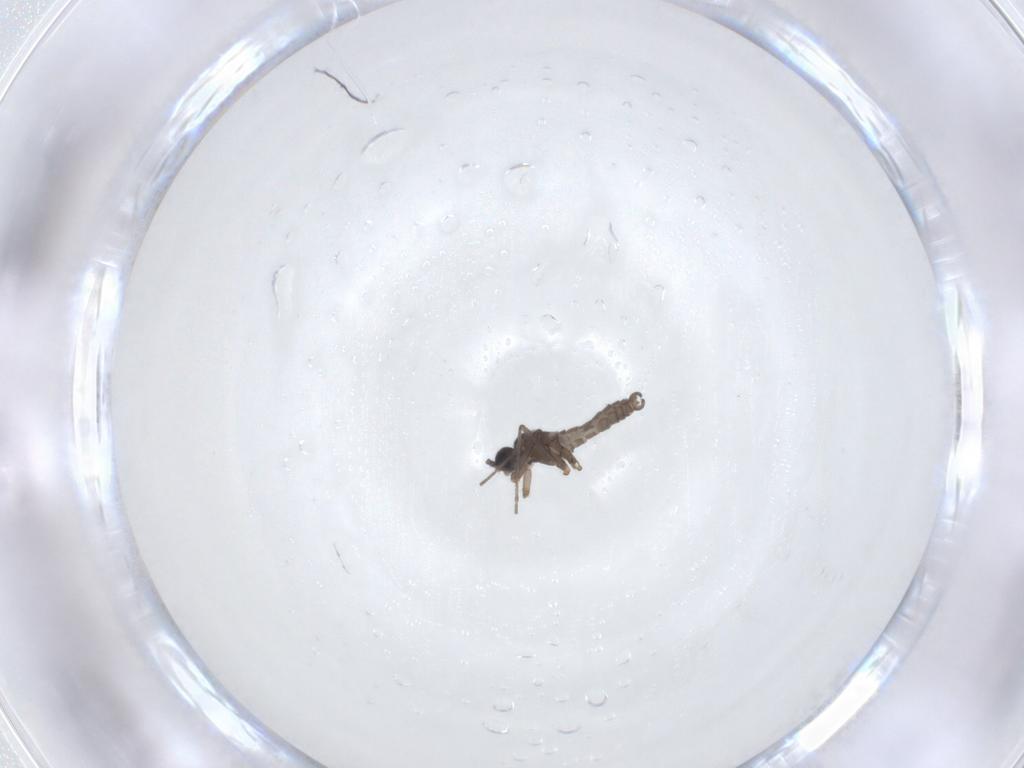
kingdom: Animalia
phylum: Arthropoda
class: Insecta
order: Diptera
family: Sciaridae
